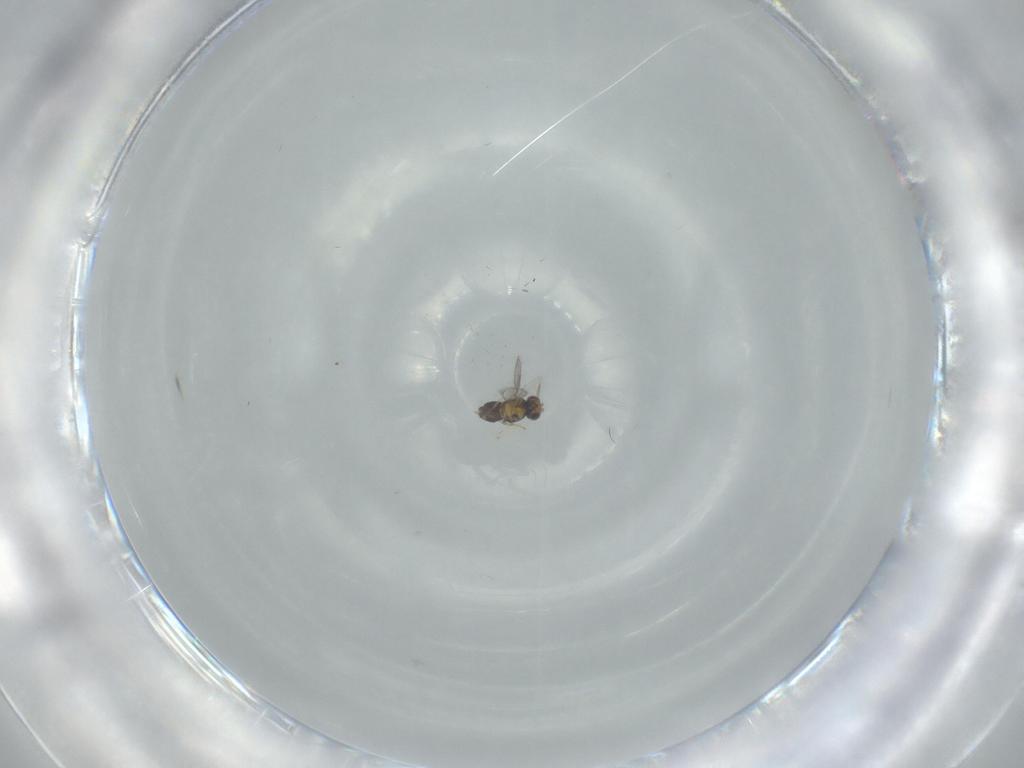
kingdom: Animalia
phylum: Arthropoda
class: Insecta
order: Hymenoptera
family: Aphelinidae
